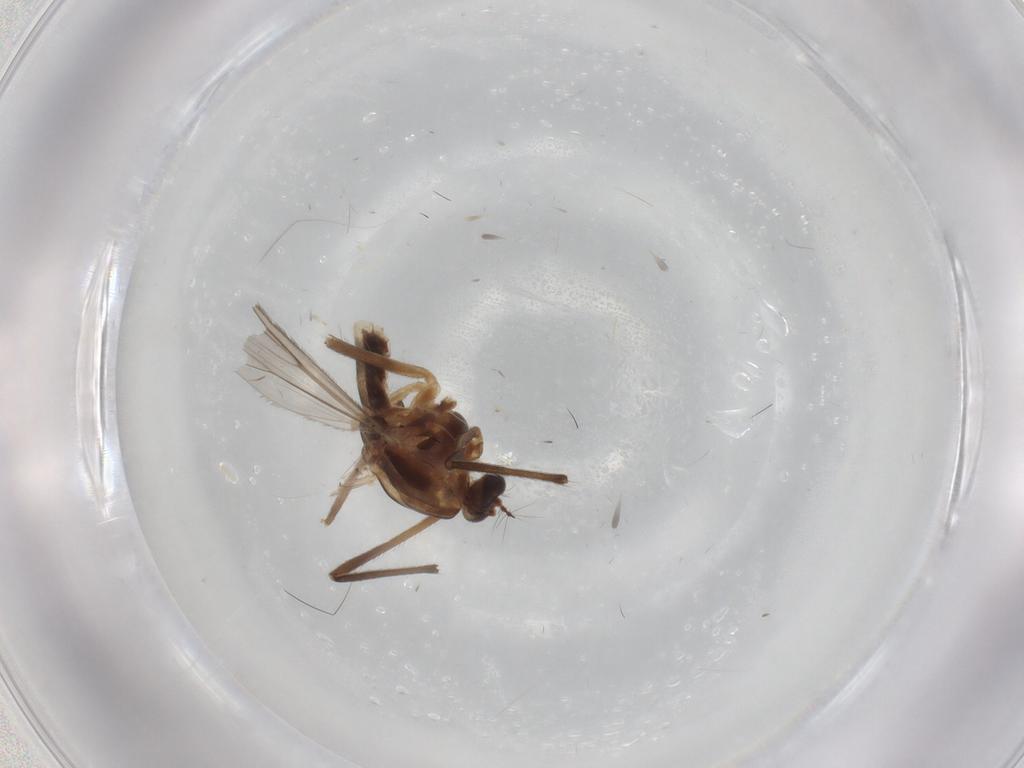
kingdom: Animalia
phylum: Arthropoda
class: Insecta
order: Diptera
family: Chironomidae
